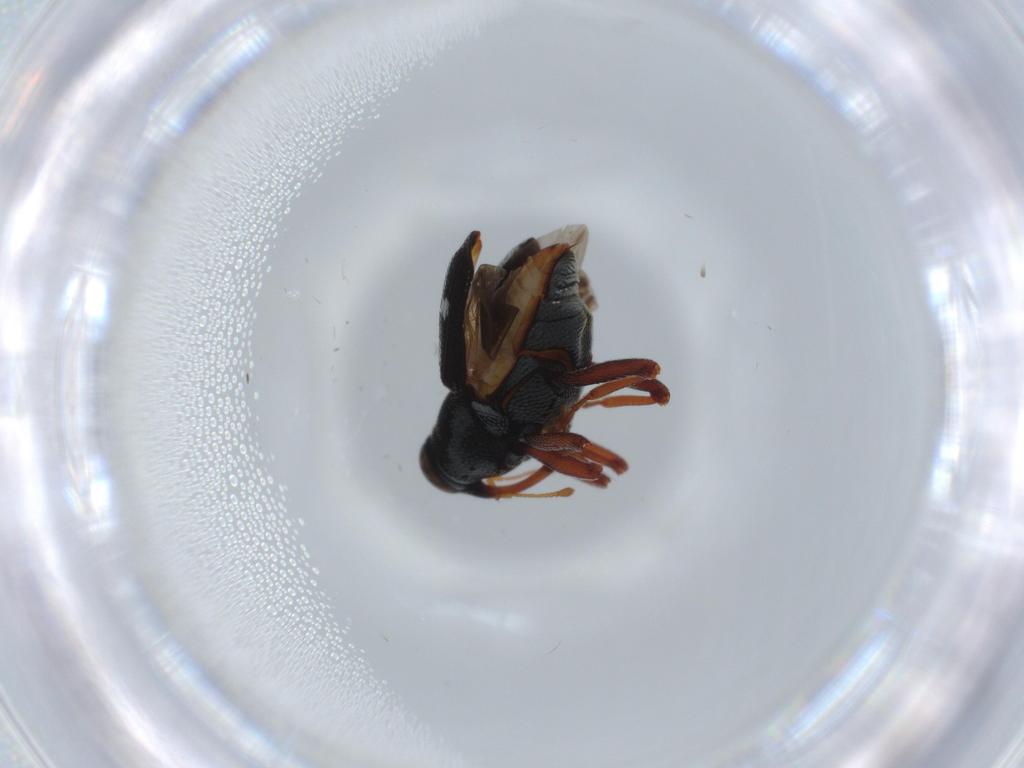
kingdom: Animalia
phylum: Arthropoda
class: Insecta
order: Coleoptera
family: Curculionidae
